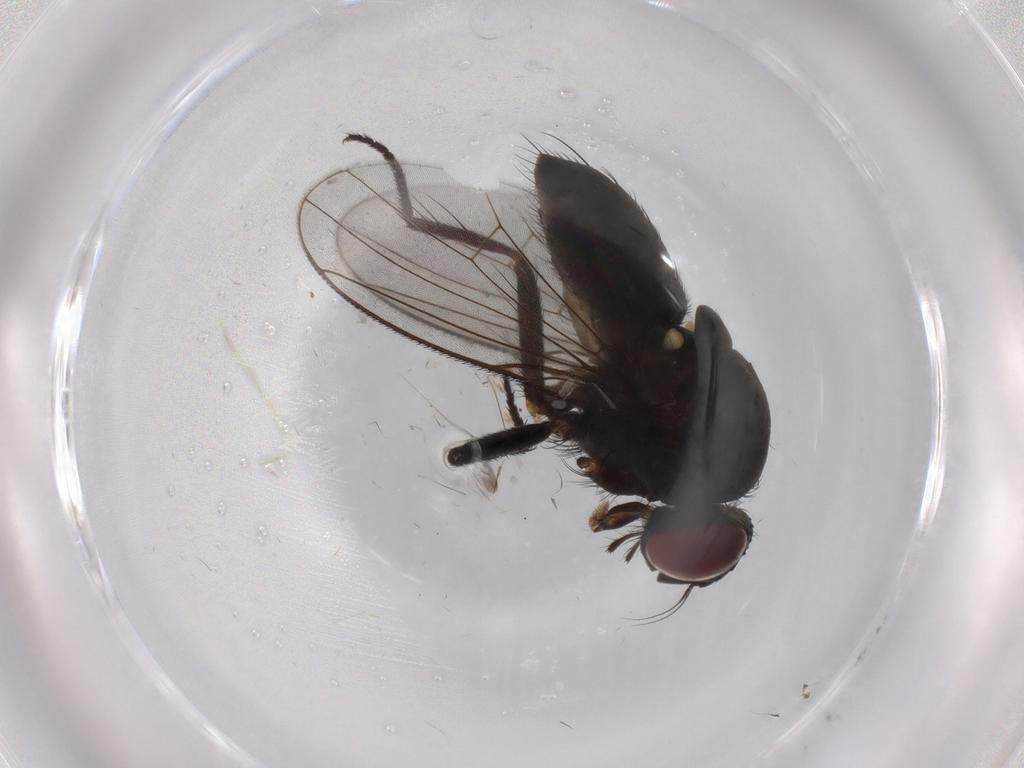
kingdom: Animalia
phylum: Arthropoda
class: Insecta
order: Diptera
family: Muscidae
